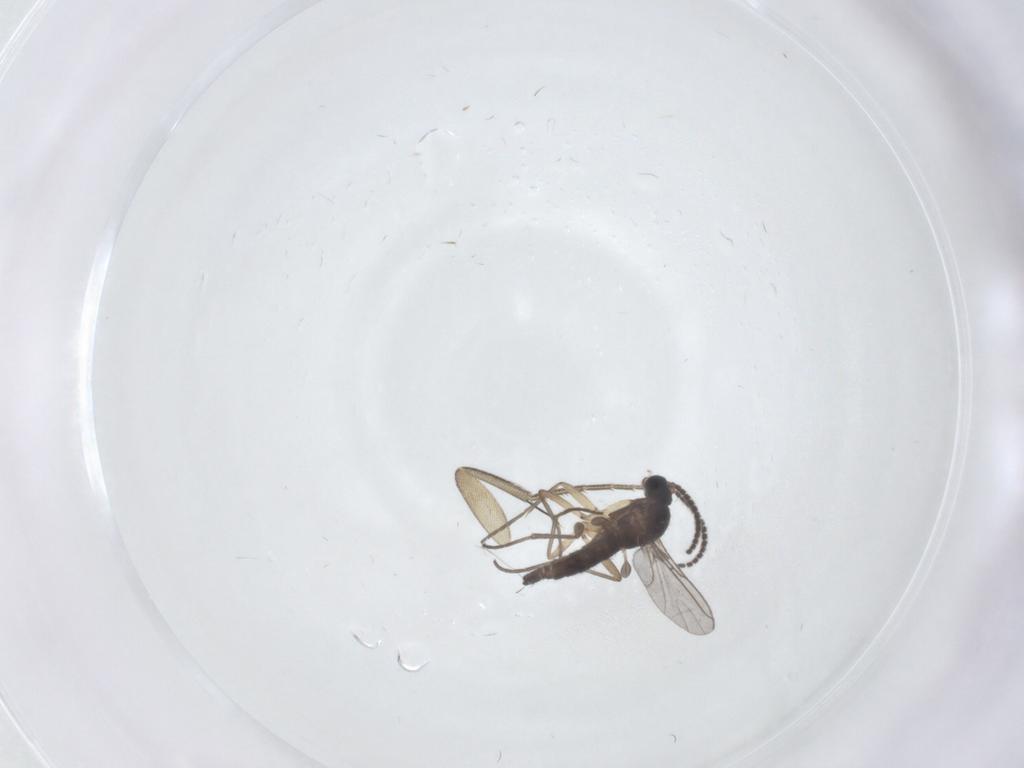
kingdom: Animalia
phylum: Arthropoda
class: Insecta
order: Diptera
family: Sciaridae
